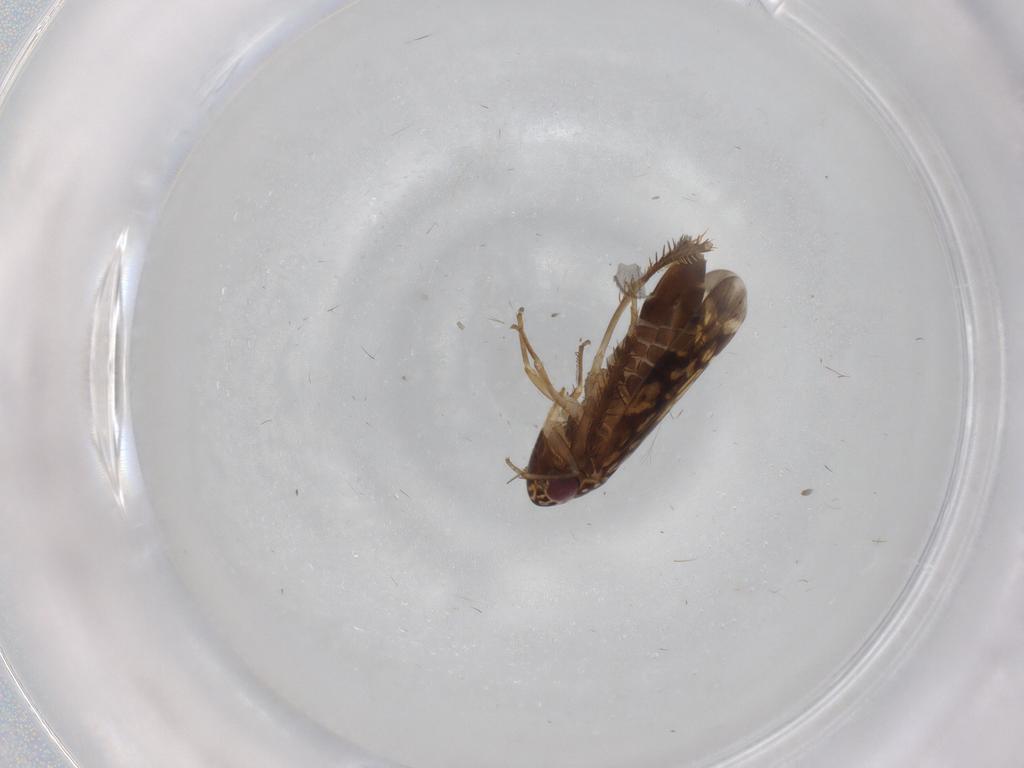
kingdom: Animalia
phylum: Arthropoda
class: Insecta
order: Hemiptera
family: Cicadellidae
